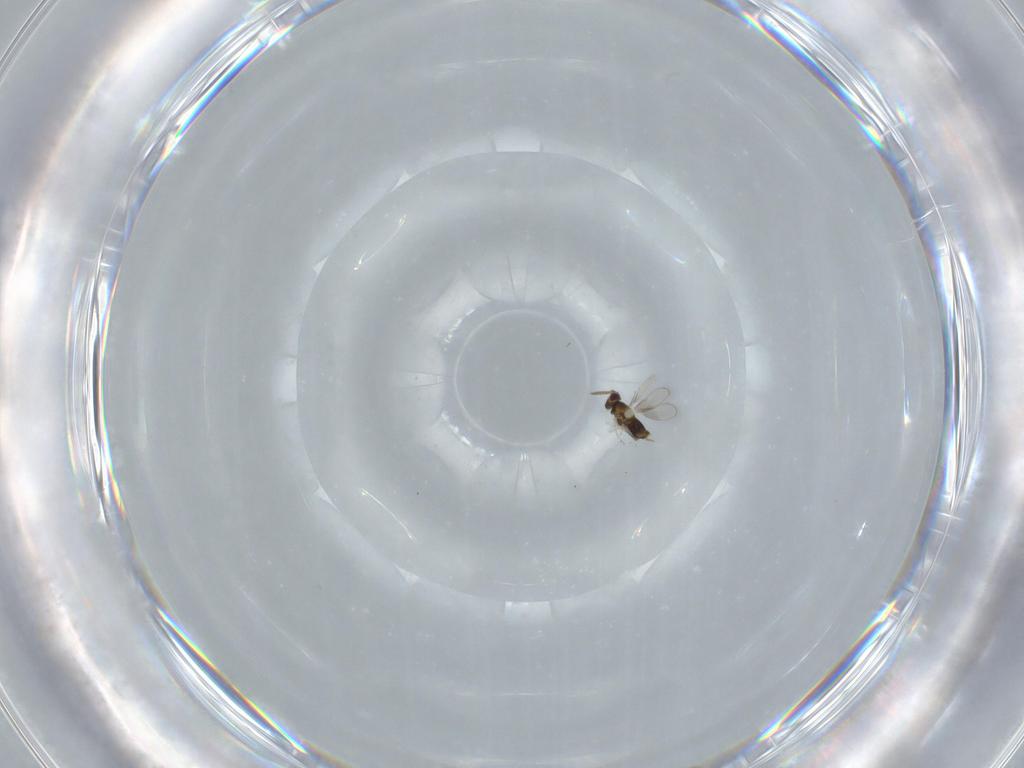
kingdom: Animalia
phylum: Arthropoda
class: Insecta
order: Hymenoptera
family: Aphelinidae
